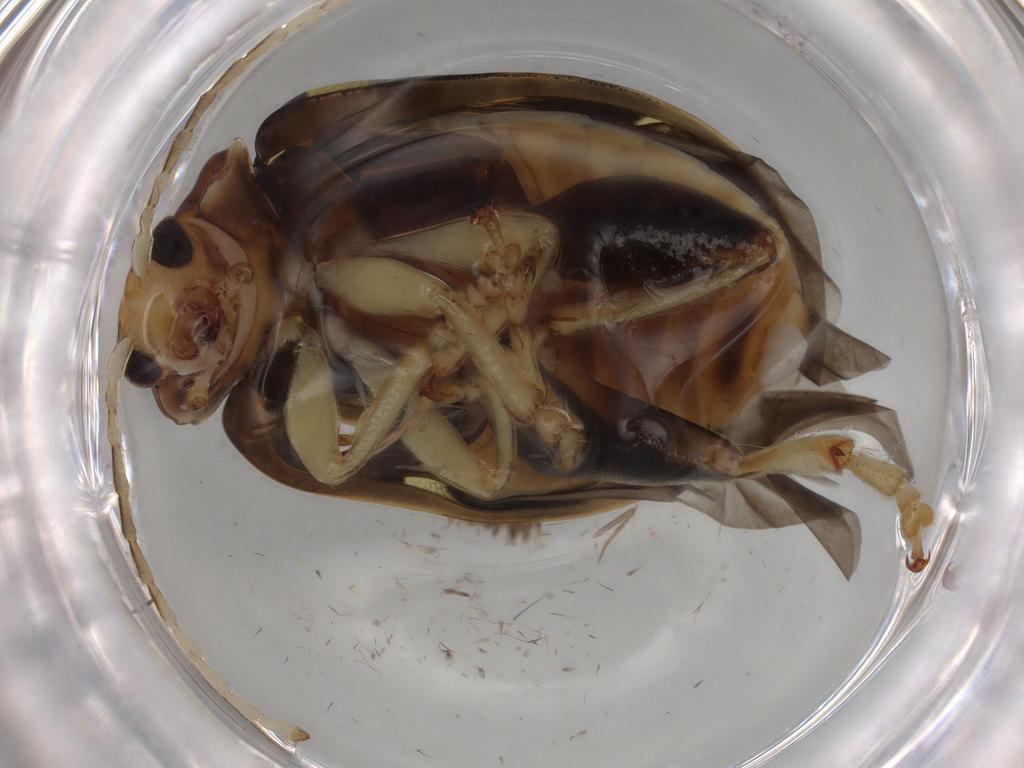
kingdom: Animalia
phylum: Arthropoda
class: Insecta
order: Coleoptera
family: Chrysomelidae
